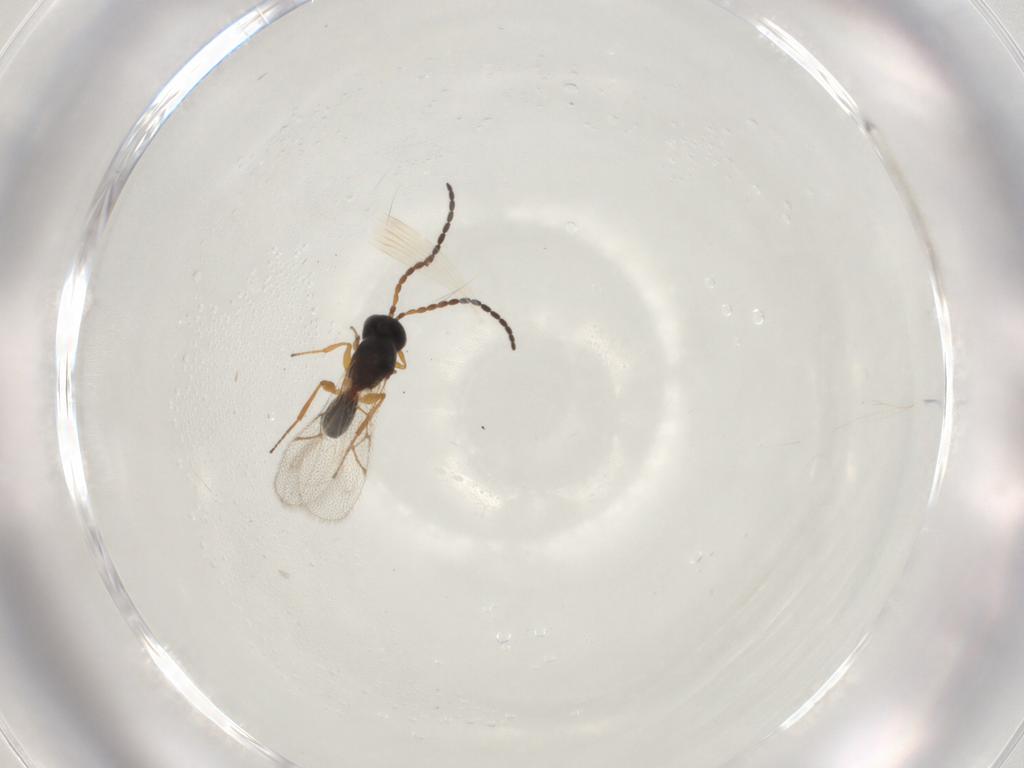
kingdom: Animalia
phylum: Arthropoda
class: Insecta
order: Hymenoptera
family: Figitidae
